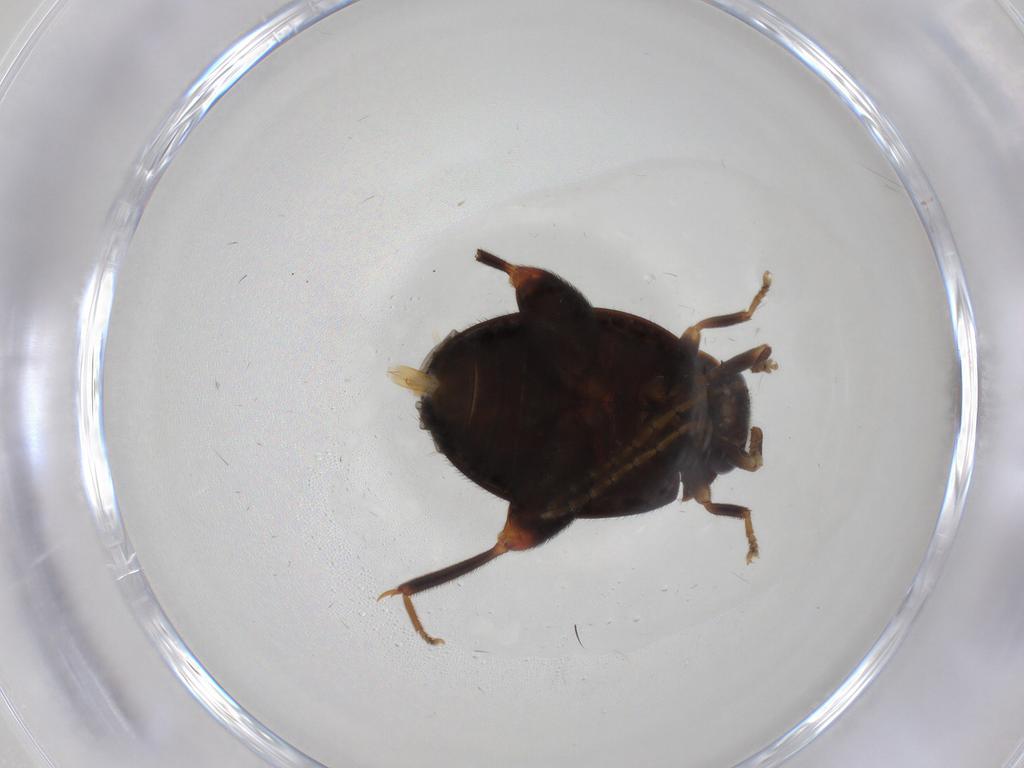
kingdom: Animalia
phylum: Arthropoda
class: Insecta
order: Coleoptera
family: Scirtidae
